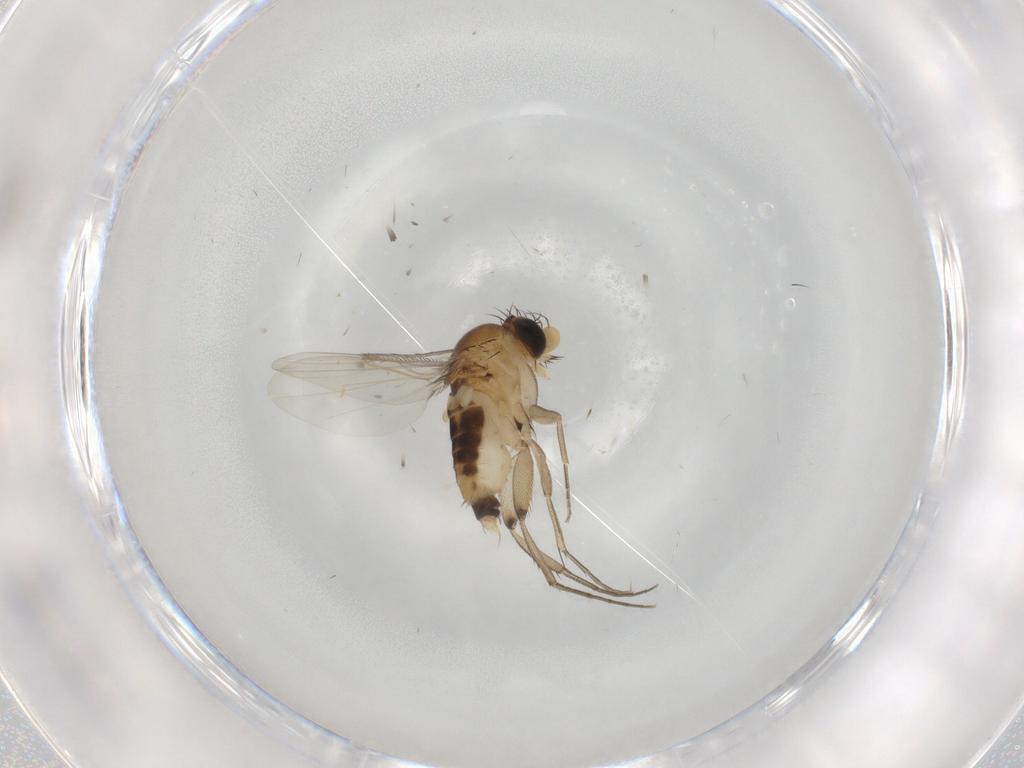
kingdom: Animalia
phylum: Arthropoda
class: Insecta
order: Diptera
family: Phoridae
